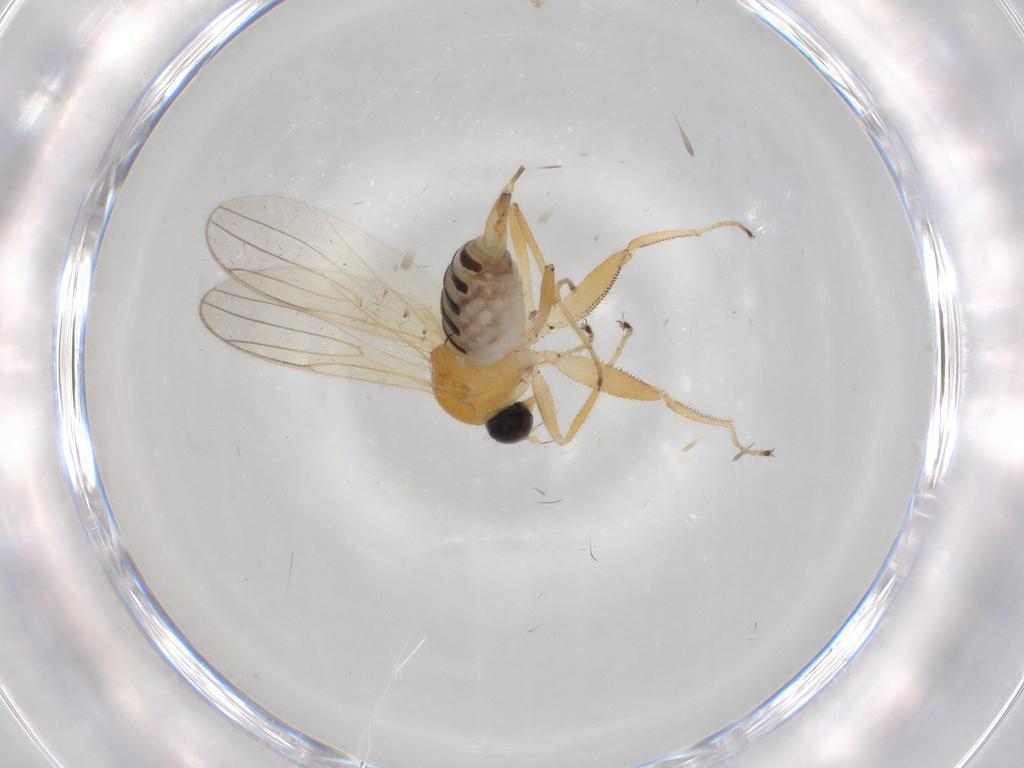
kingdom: Animalia
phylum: Arthropoda
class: Insecta
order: Diptera
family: Hybotidae
